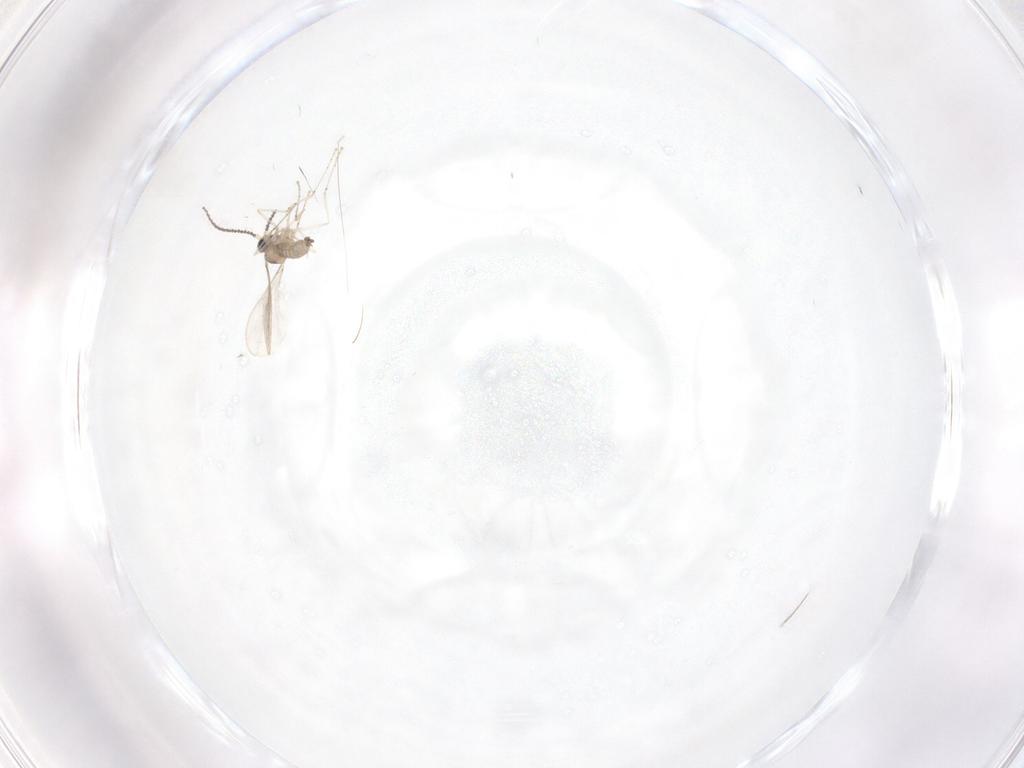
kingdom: Animalia
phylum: Arthropoda
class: Insecta
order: Diptera
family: Cecidomyiidae
